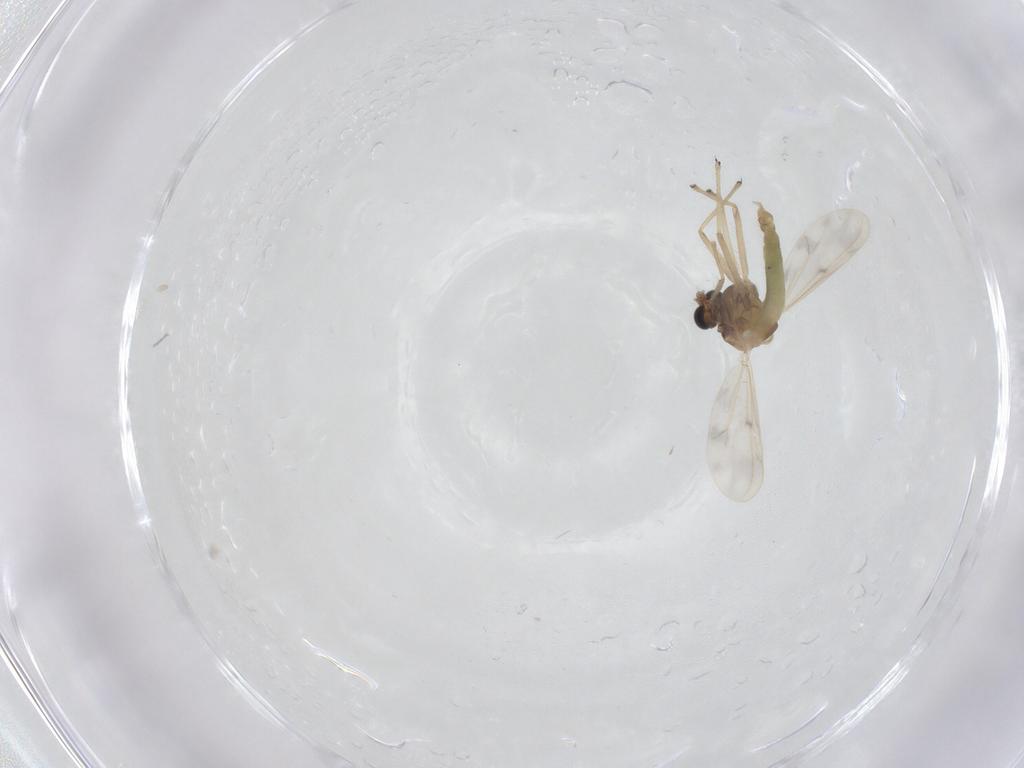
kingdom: Animalia
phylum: Arthropoda
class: Insecta
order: Diptera
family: Chironomidae
